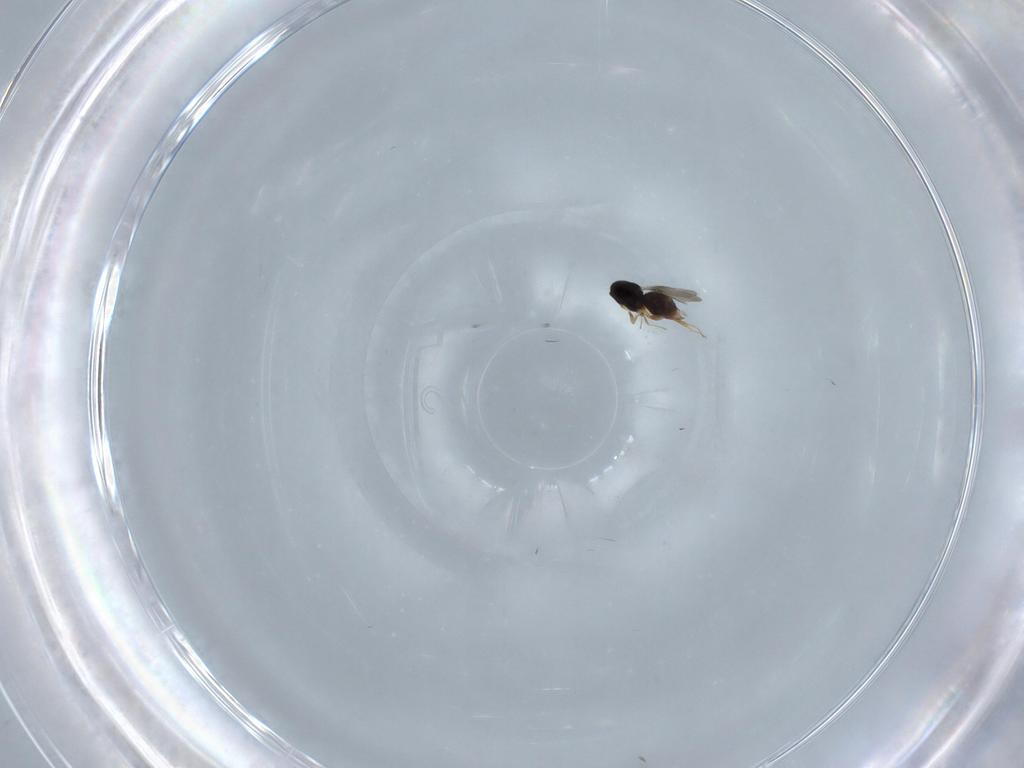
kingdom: Animalia
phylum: Arthropoda
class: Insecta
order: Hymenoptera
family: Ceraphronidae
